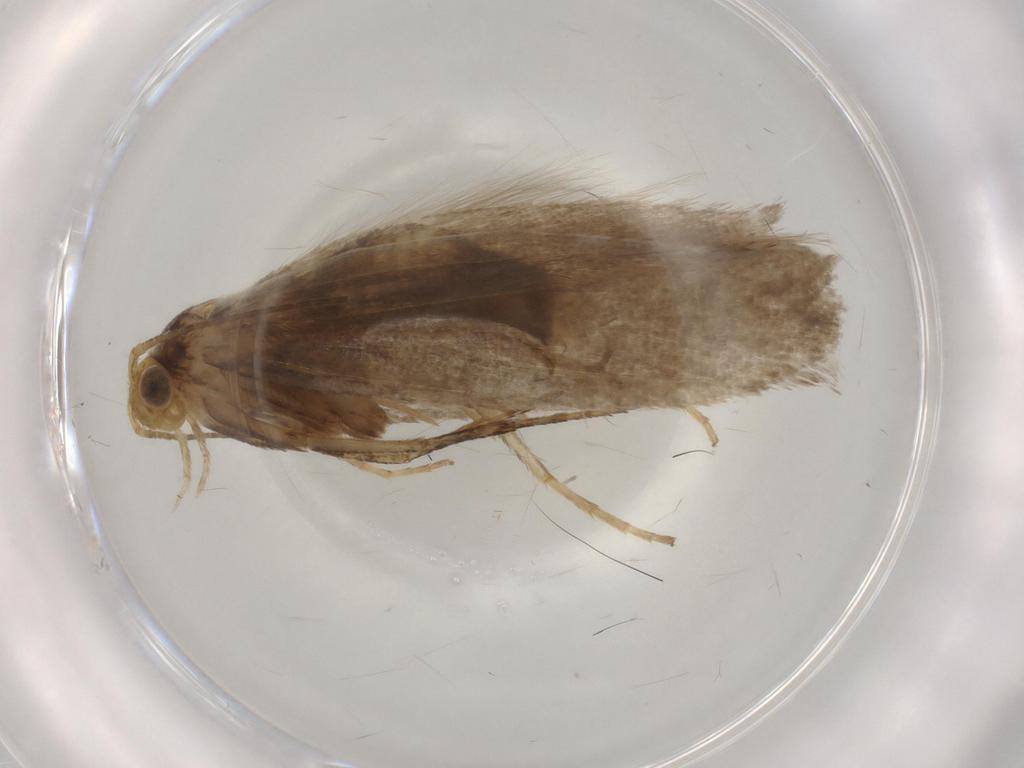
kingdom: Animalia
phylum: Arthropoda
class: Insecta
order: Lepidoptera
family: Argyresthiidae
